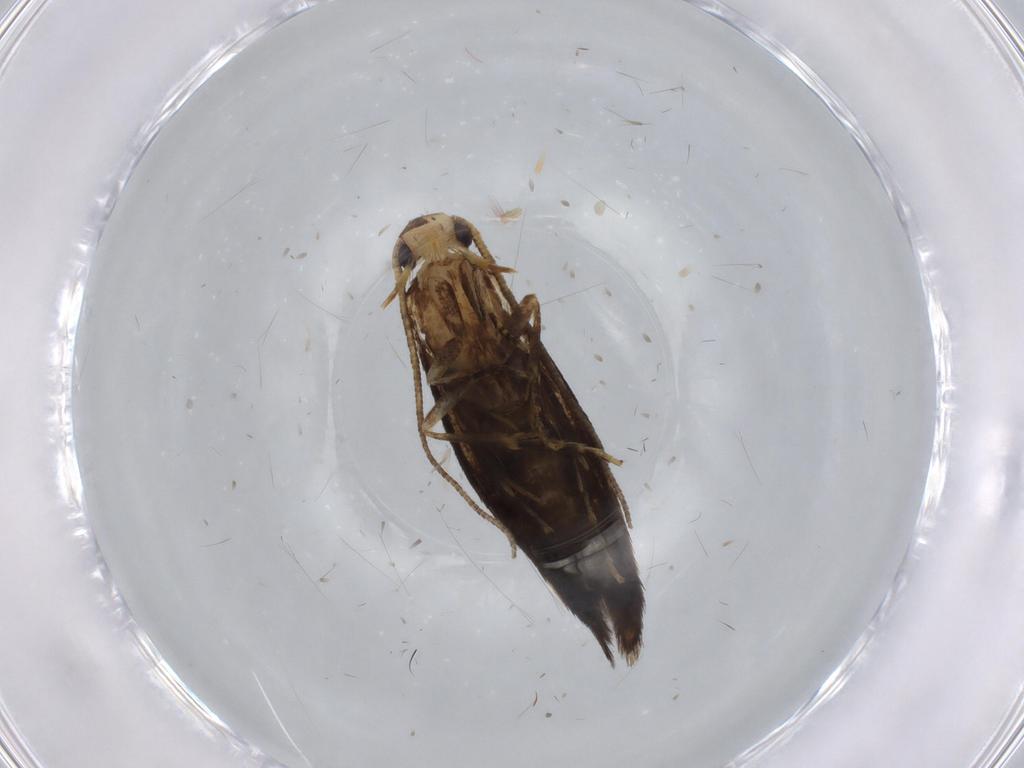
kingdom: Animalia
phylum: Arthropoda
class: Insecta
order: Lepidoptera
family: Tineidae
